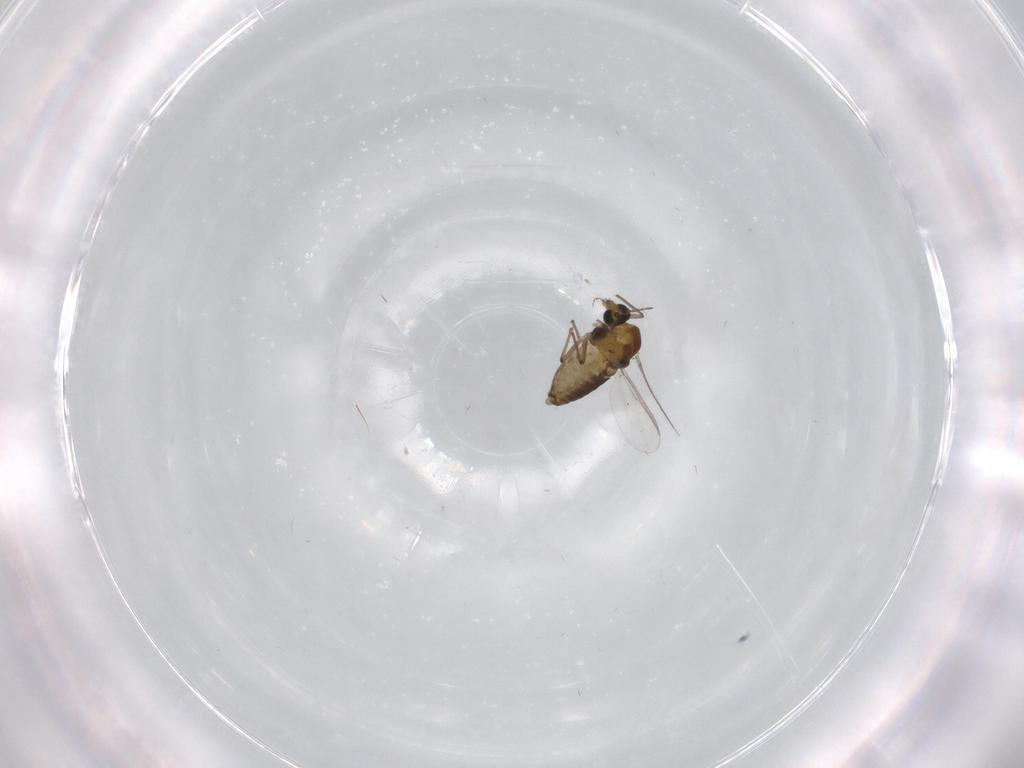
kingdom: Animalia
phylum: Arthropoda
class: Insecta
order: Diptera
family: Chironomidae
